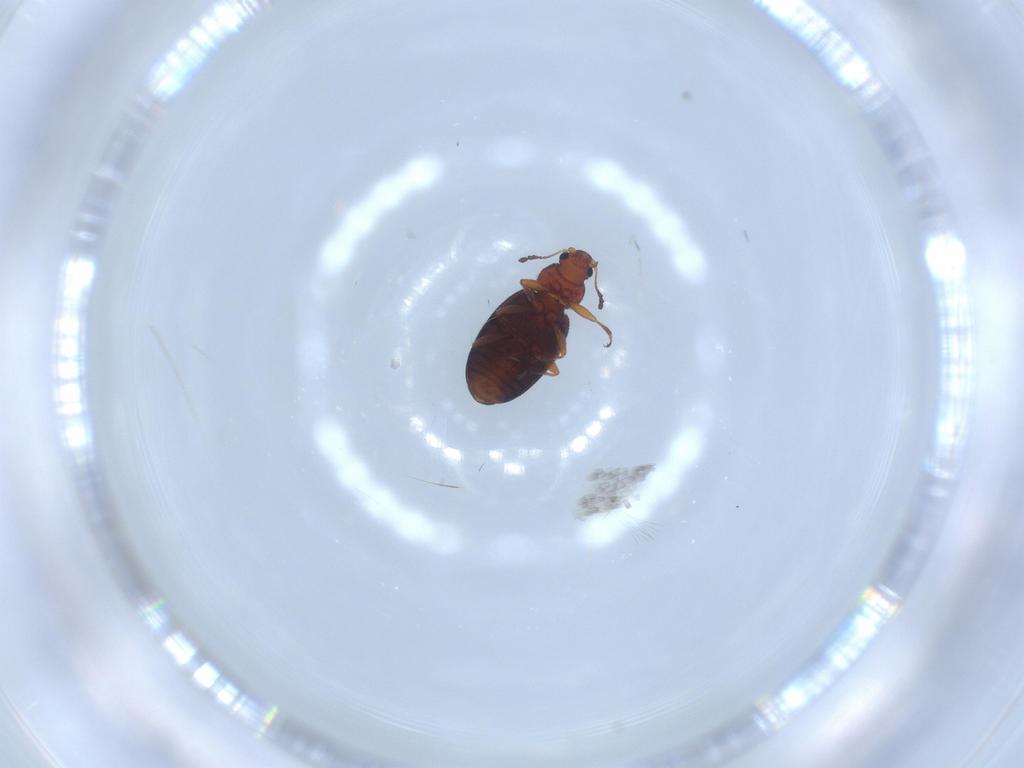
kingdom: Animalia
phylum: Arthropoda
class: Insecta
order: Coleoptera
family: Latridiidae
